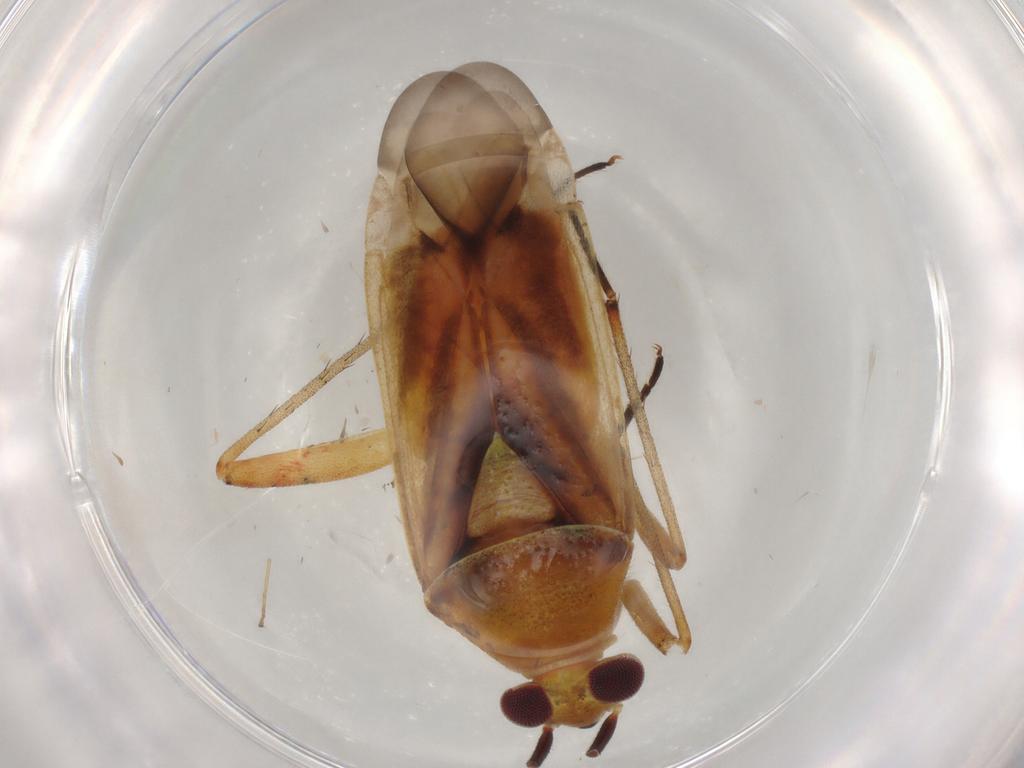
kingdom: Animalia
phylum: Arthropoda
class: Insecta
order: Hemiptera
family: Miridae
